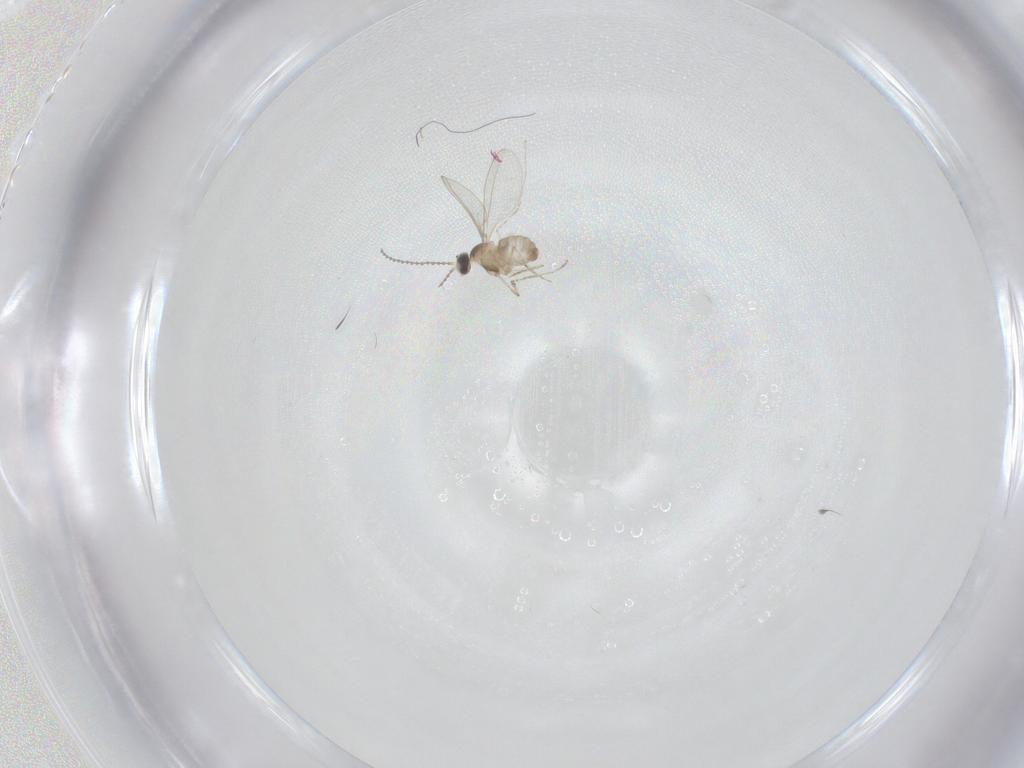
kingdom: Animalia
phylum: Arthropoda
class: Insecta
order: Diptera
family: Cecidomyiidae
